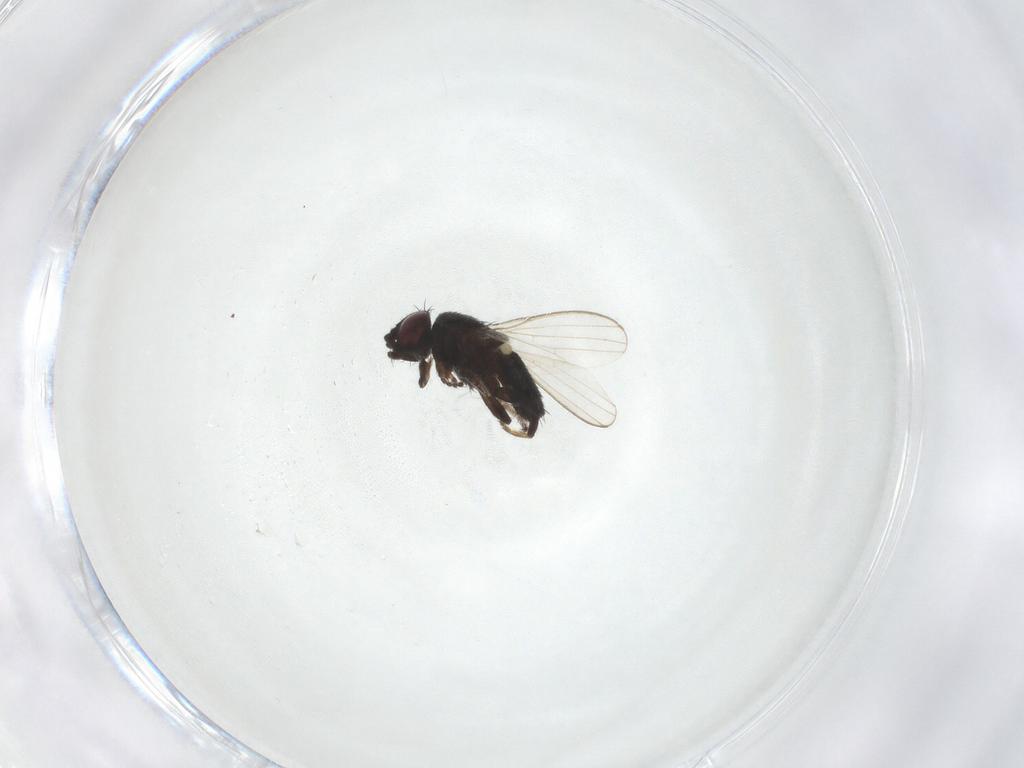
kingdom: Animalia
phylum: Arthropoda
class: Insecta
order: Diptera
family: Milichiidae
